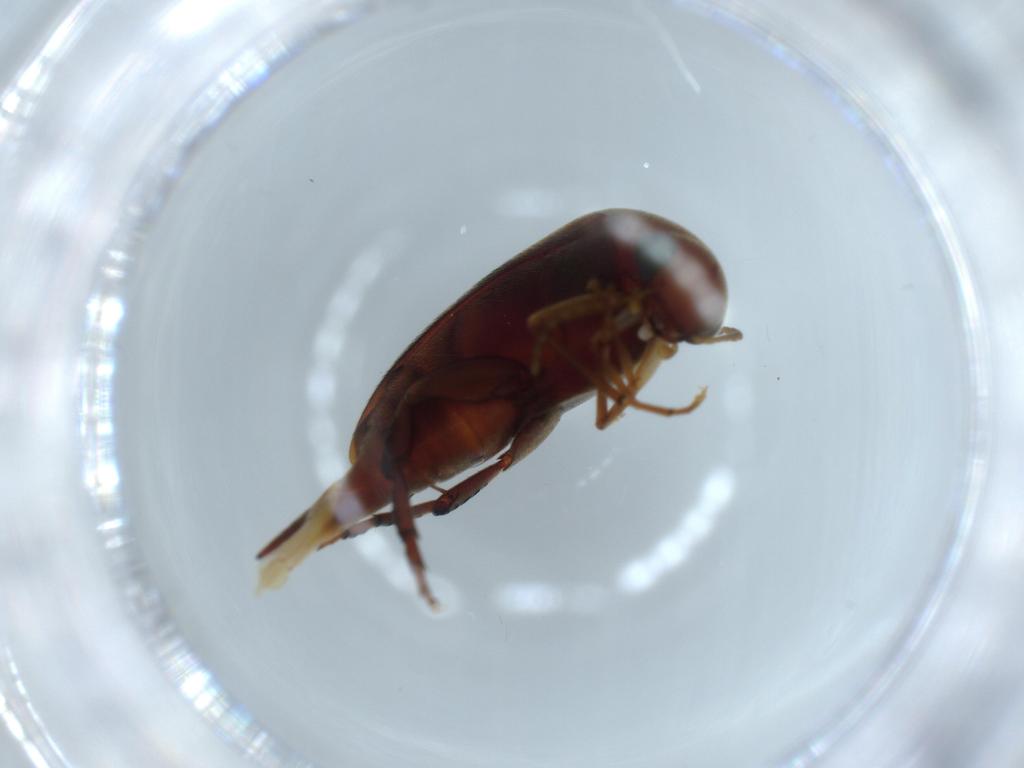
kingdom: Animalia
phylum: Arthropoda
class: Insecta
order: Coleoptera
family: Mordellidae
